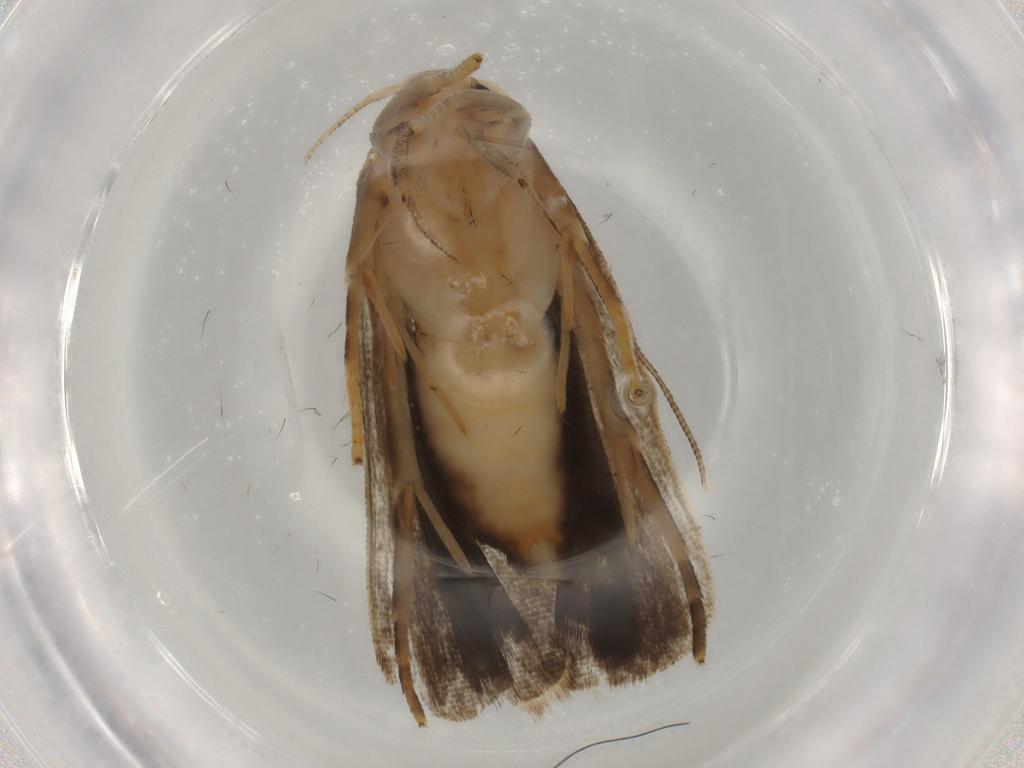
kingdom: Animalia
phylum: Arthropoda
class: Insecta
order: Lepidoptera
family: Gelechiidae
